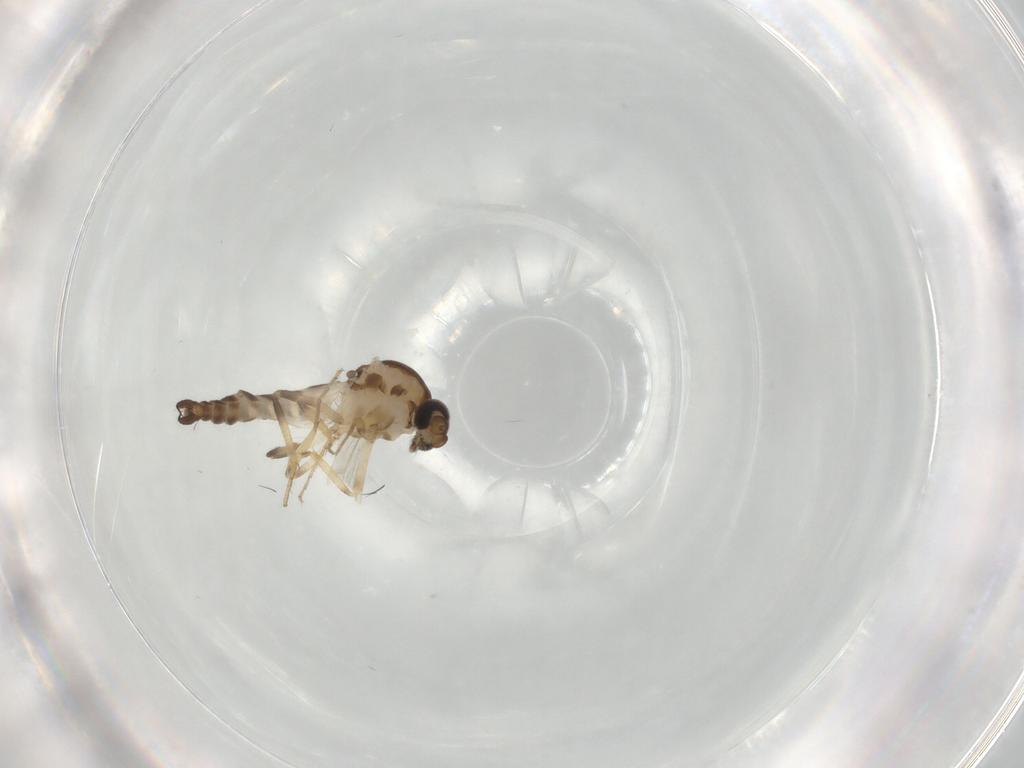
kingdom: Animalia
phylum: Arthropoda
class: Insecta
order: Diptera
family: Ceratopogonidae
